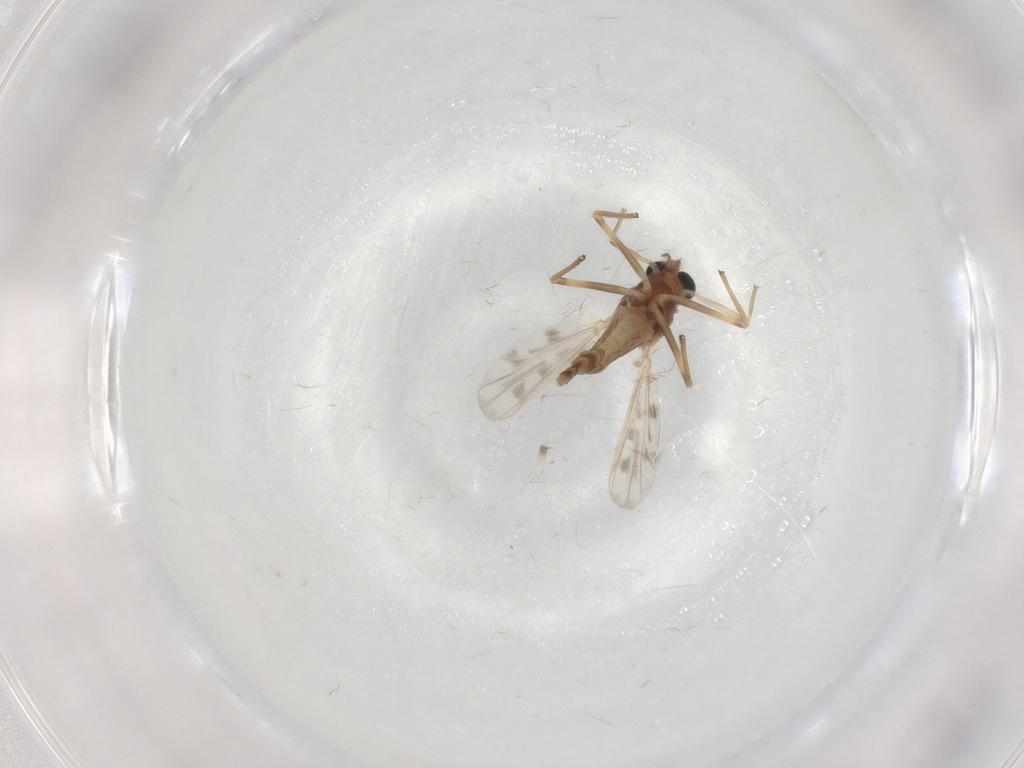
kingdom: Animalia
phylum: Arthropoda
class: Insecta
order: Diptera
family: Chironomidae
